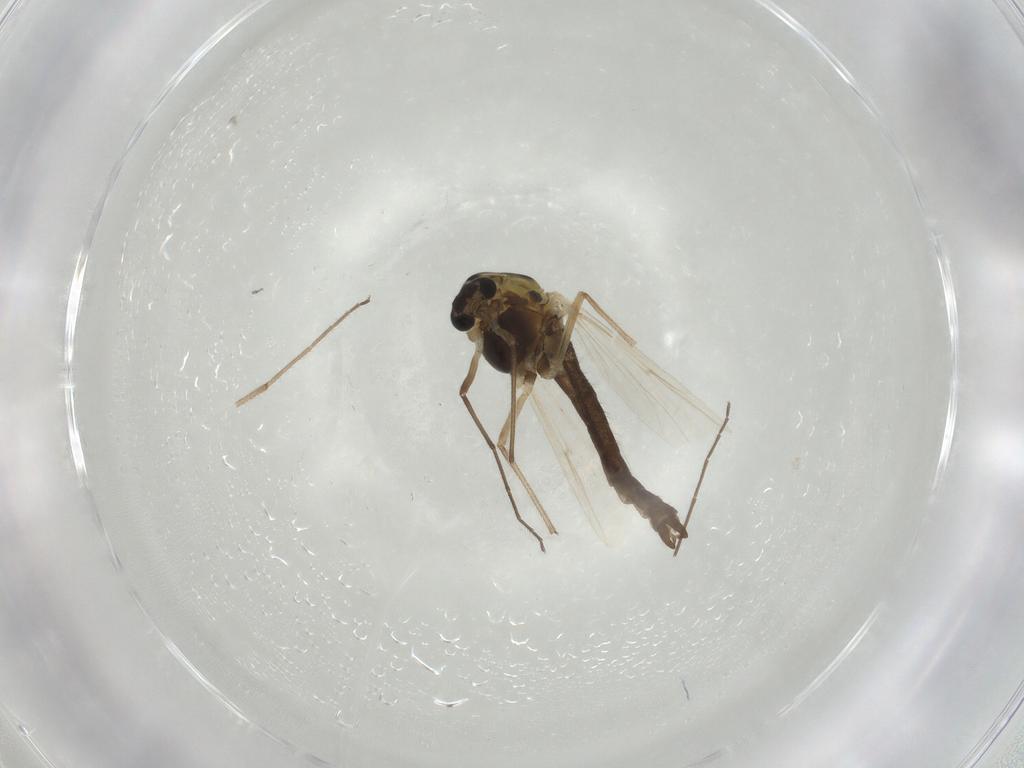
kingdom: Animalia
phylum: Arthropoda
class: Insecta
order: Diptera
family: Chironomidae
